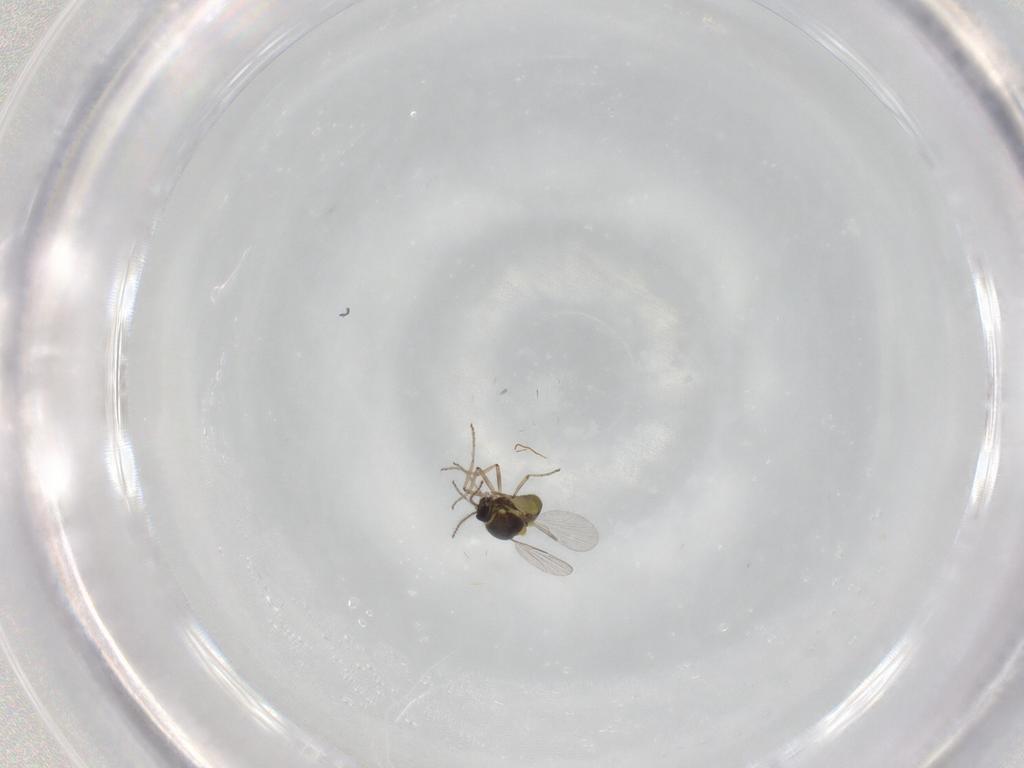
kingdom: Animalia
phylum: Arthropoda
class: Insecta
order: Diptera
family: Ceratopogonidae
